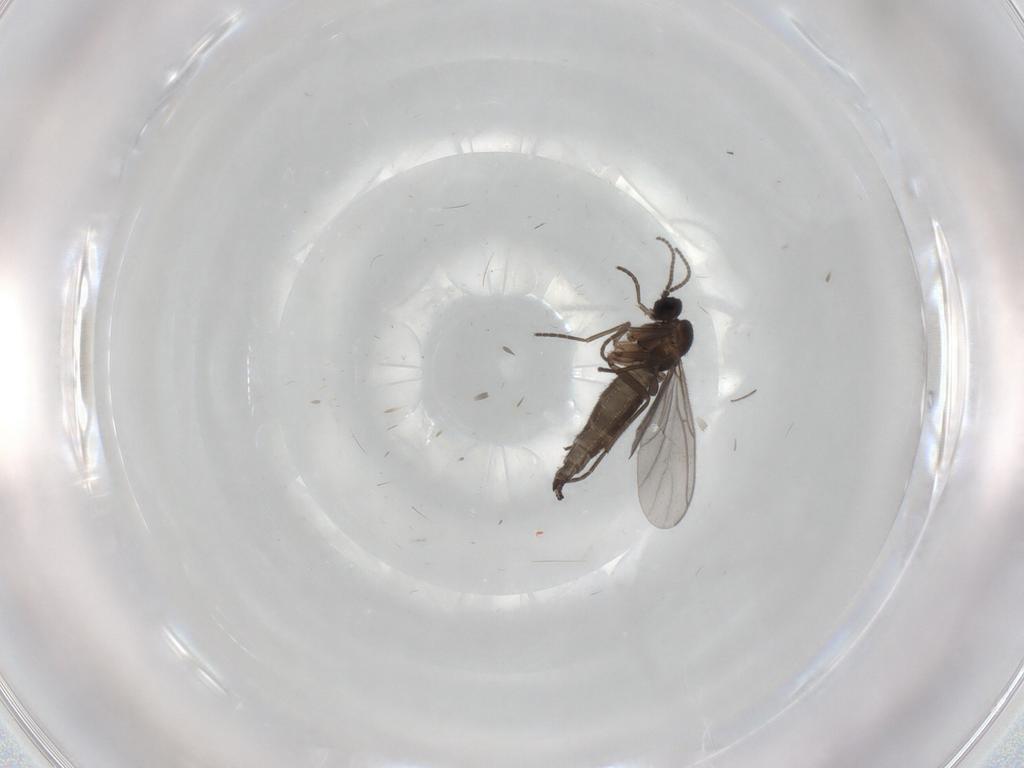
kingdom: Animalia
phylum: Arthropoda
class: Insecta
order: Diptera
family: Sciaridae
